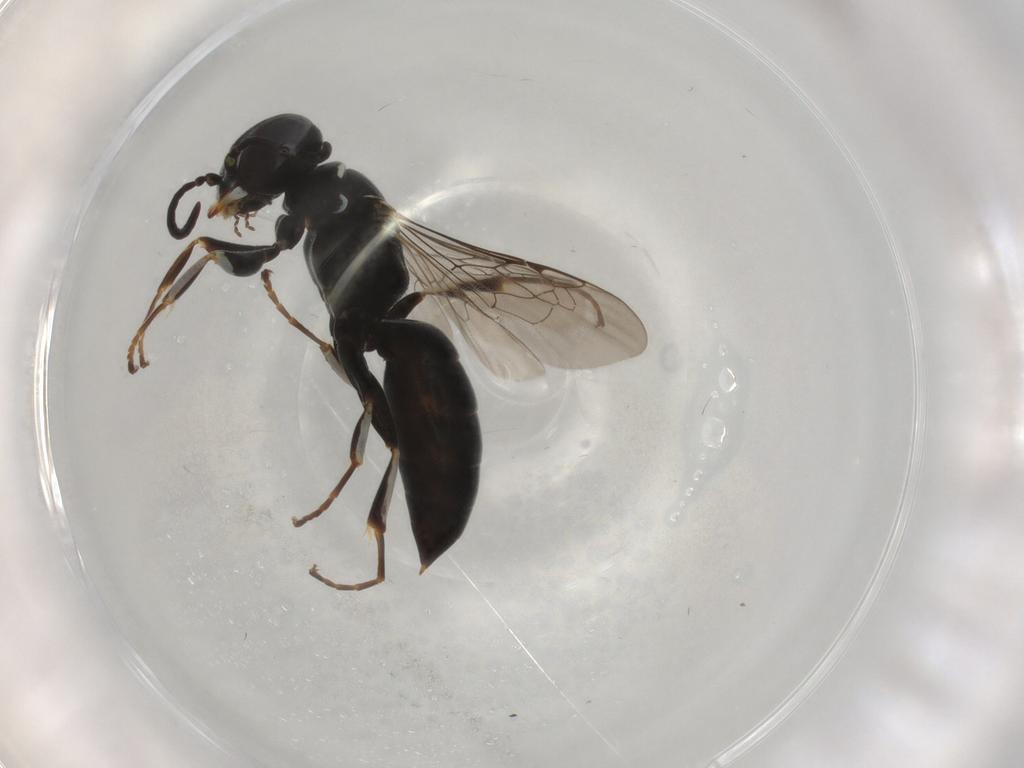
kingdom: Animalia
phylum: Arthropoda
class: Insecta
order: Hymenoptera
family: Crabronidae
